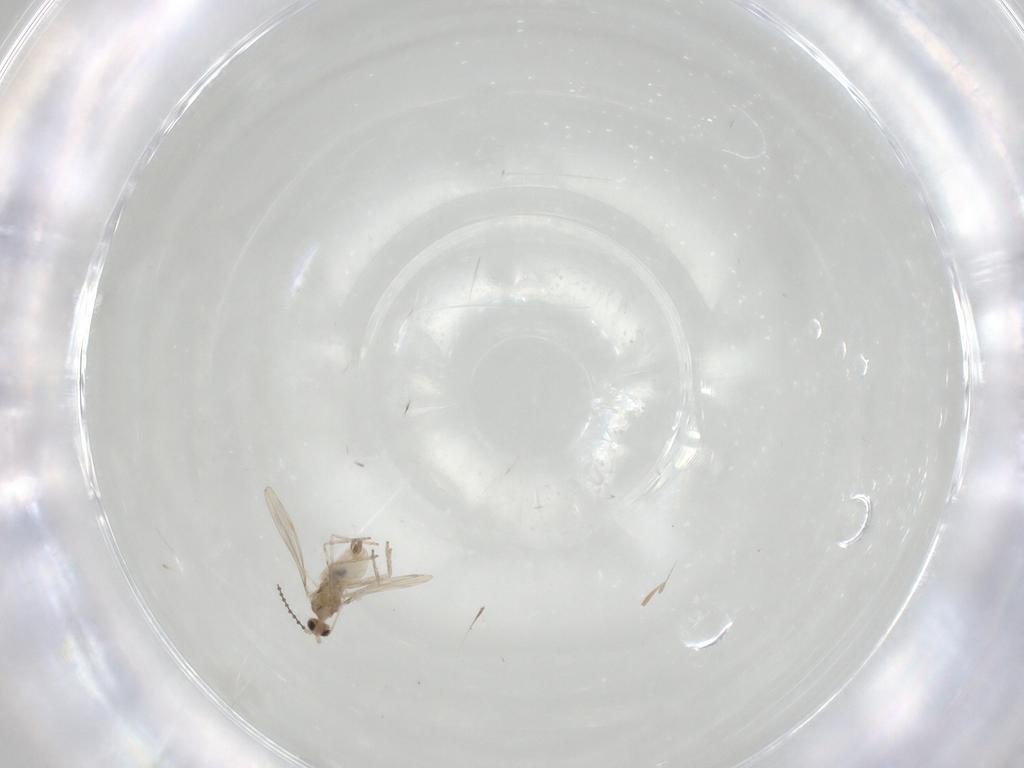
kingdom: Animalia
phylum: Arthropoda
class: Insecta
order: Diptera
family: Cecidomyiidae
